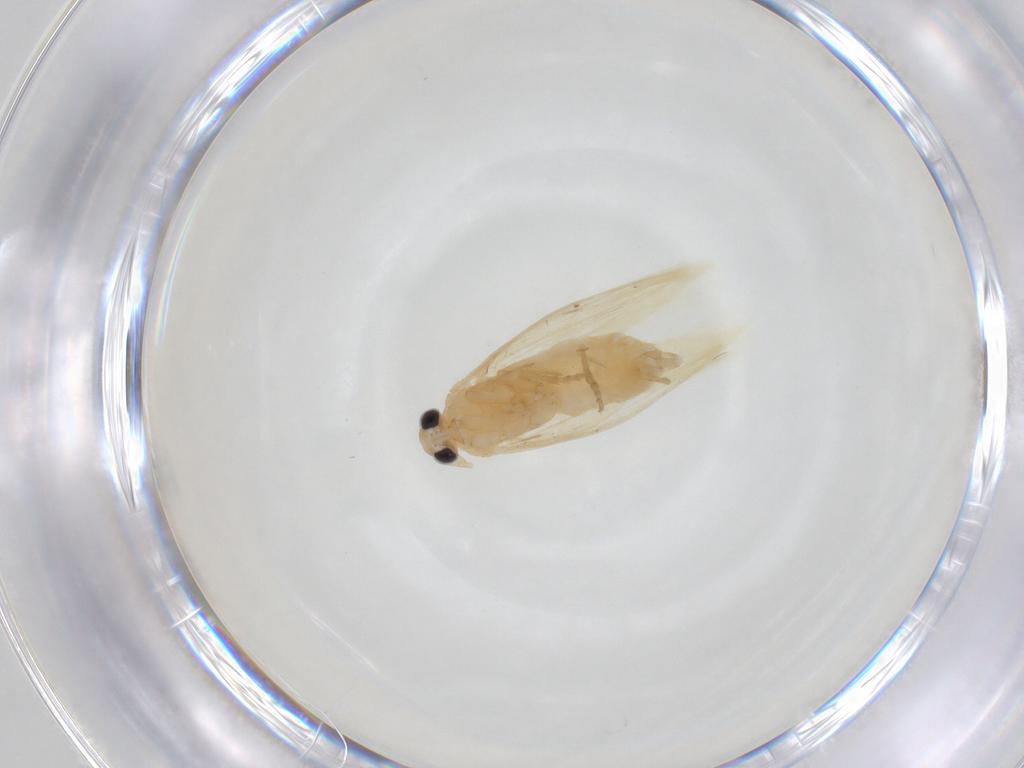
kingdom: Animalia
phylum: Arthropoda
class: Insecta
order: Lepidoptera
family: Bucculatricidae
